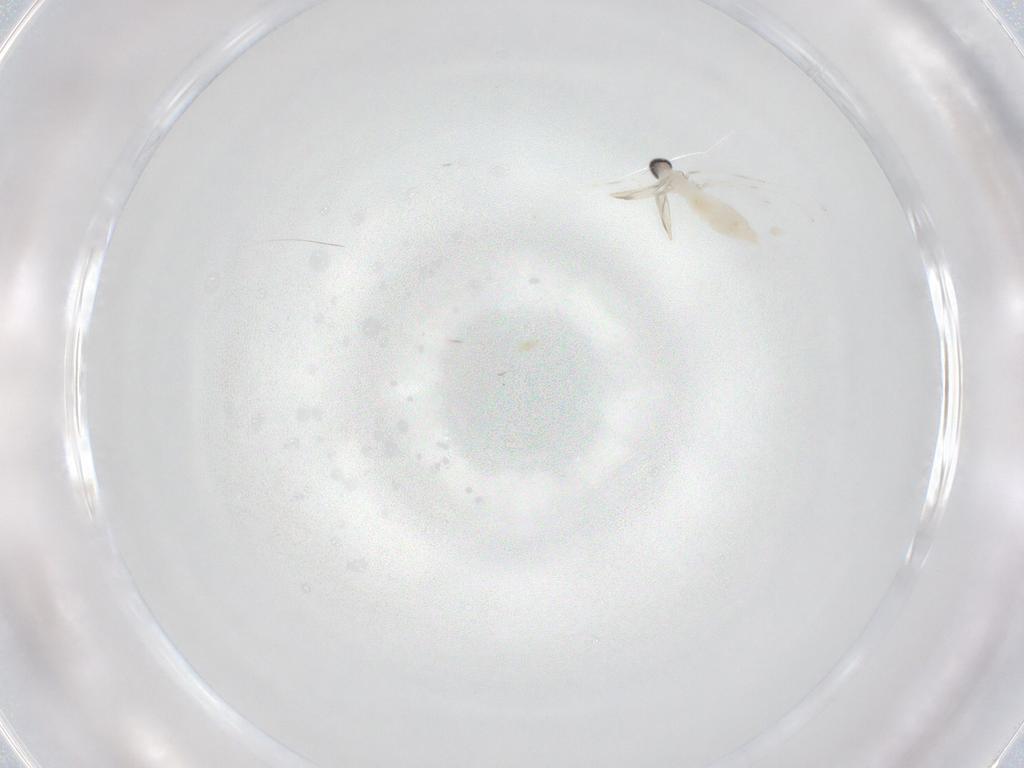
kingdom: Animalia
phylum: Arthropoda
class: Insecta
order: Diptera
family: Cecidomyiidae
